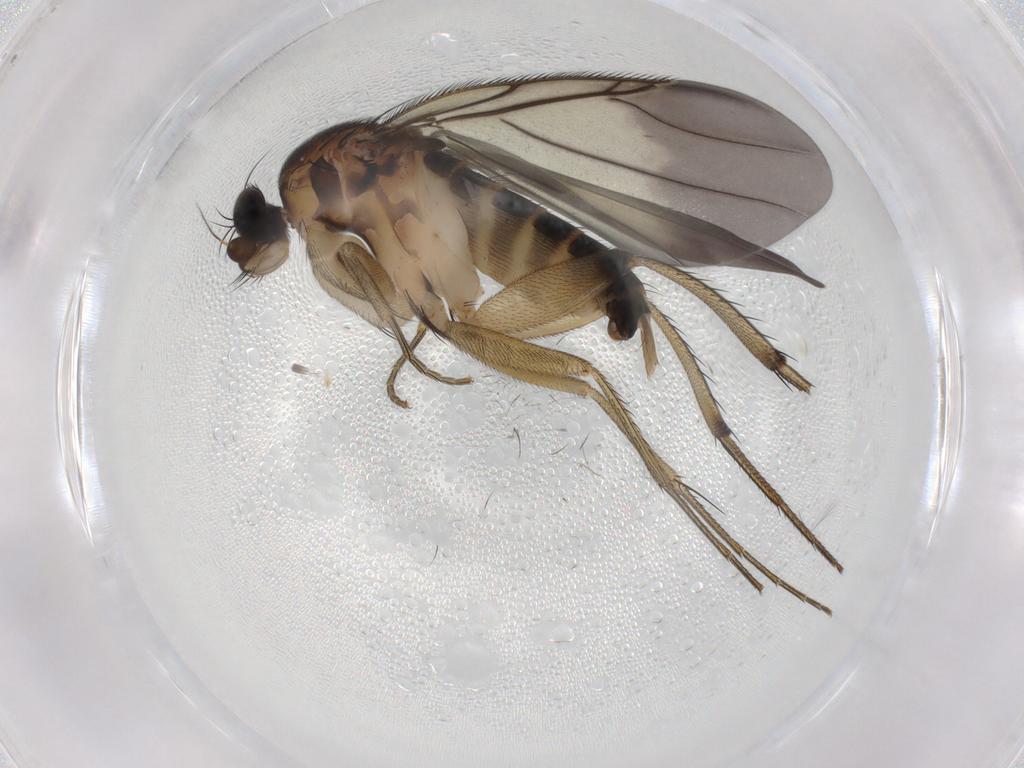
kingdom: Animalia
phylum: Arthropoda
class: Insecta
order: Diptera
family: Phoridae
